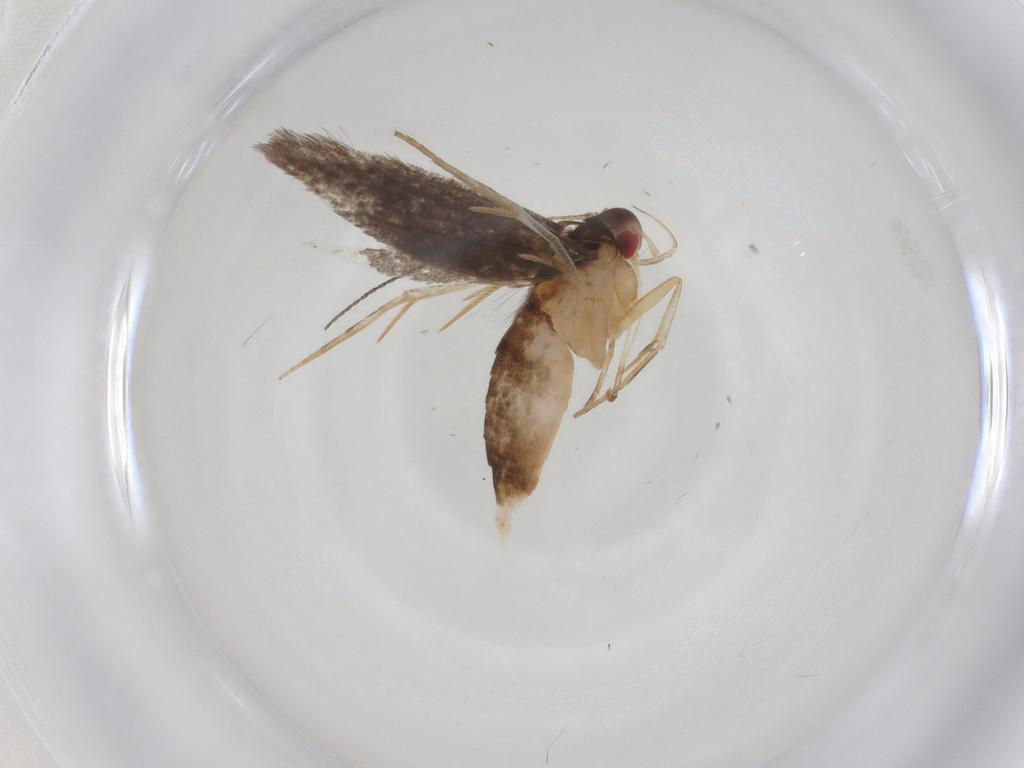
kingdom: Animalia
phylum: Arthropoda
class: Insecta
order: Lepidoptera
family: Cosmopterigidae
